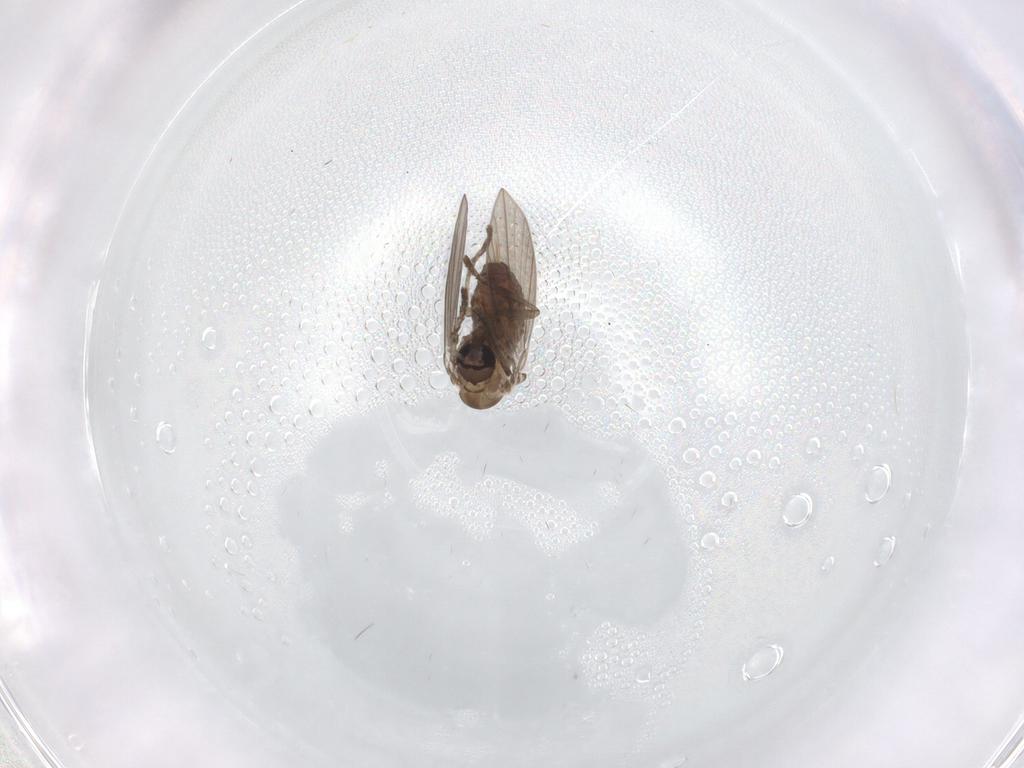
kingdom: Animalia
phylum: Arthropoda
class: Insecta
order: Diptera
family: Psychodidae
